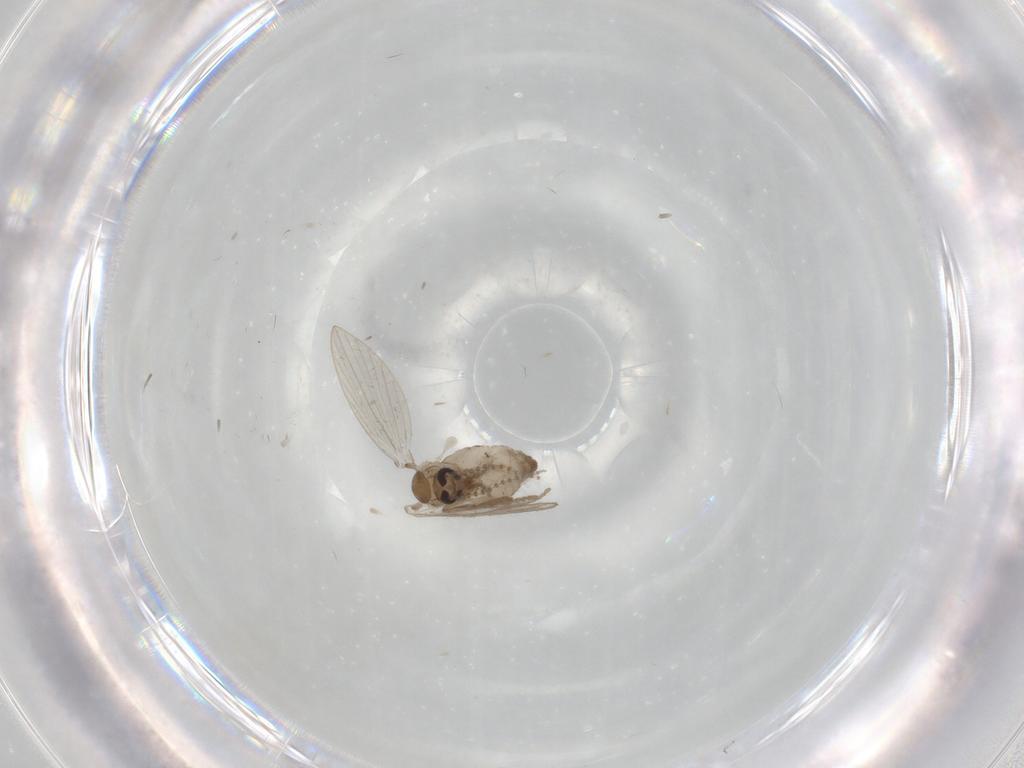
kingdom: Animalia
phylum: Arthropoda
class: Insecta
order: Diptera
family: Psychodidae
